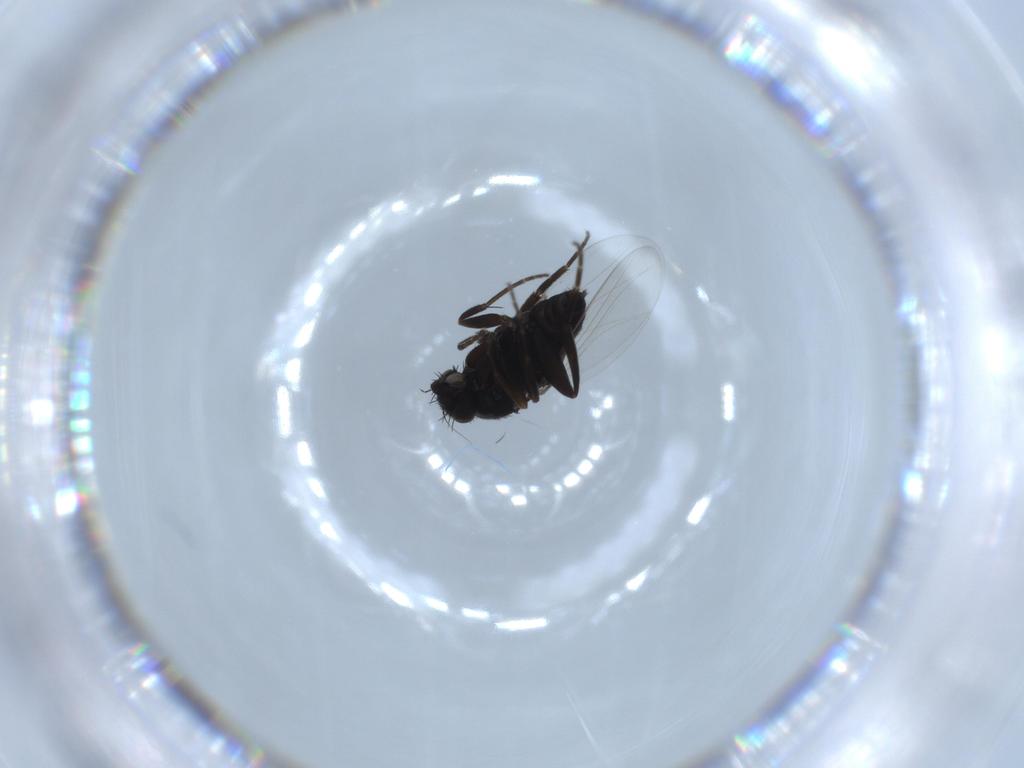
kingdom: Animalia
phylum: Arthropoda
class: Insecta
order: Diptera
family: Phoridae
